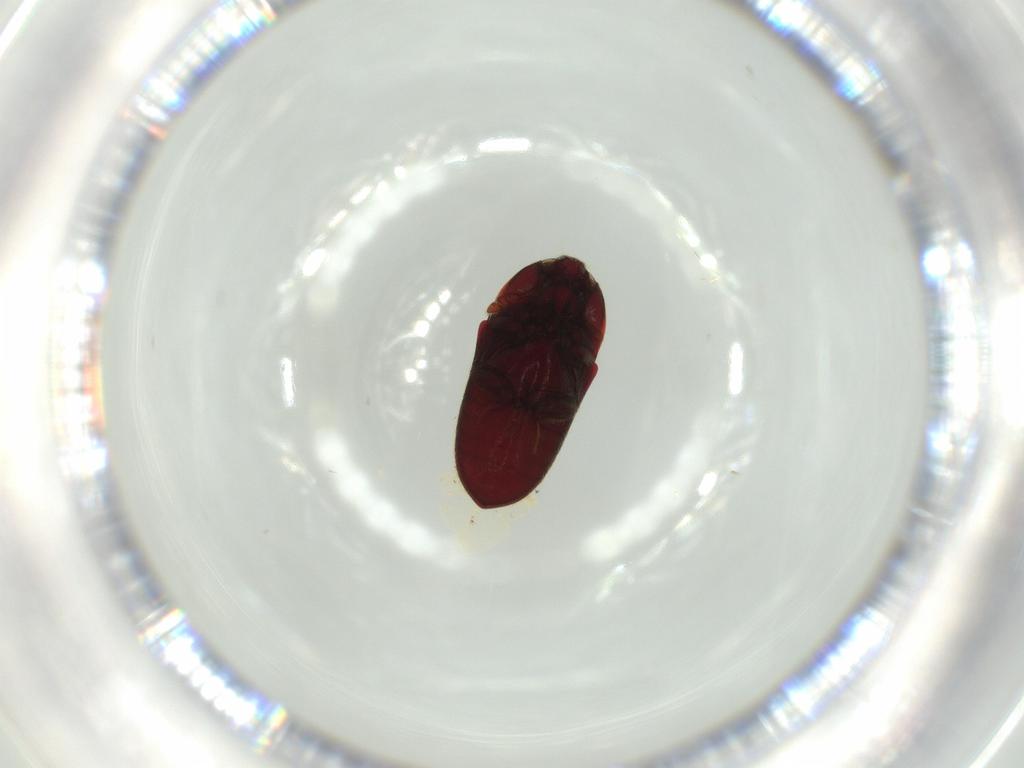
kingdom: Animalia
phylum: Arthropoda
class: Insecta
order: Coleoptera
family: Throscidae
